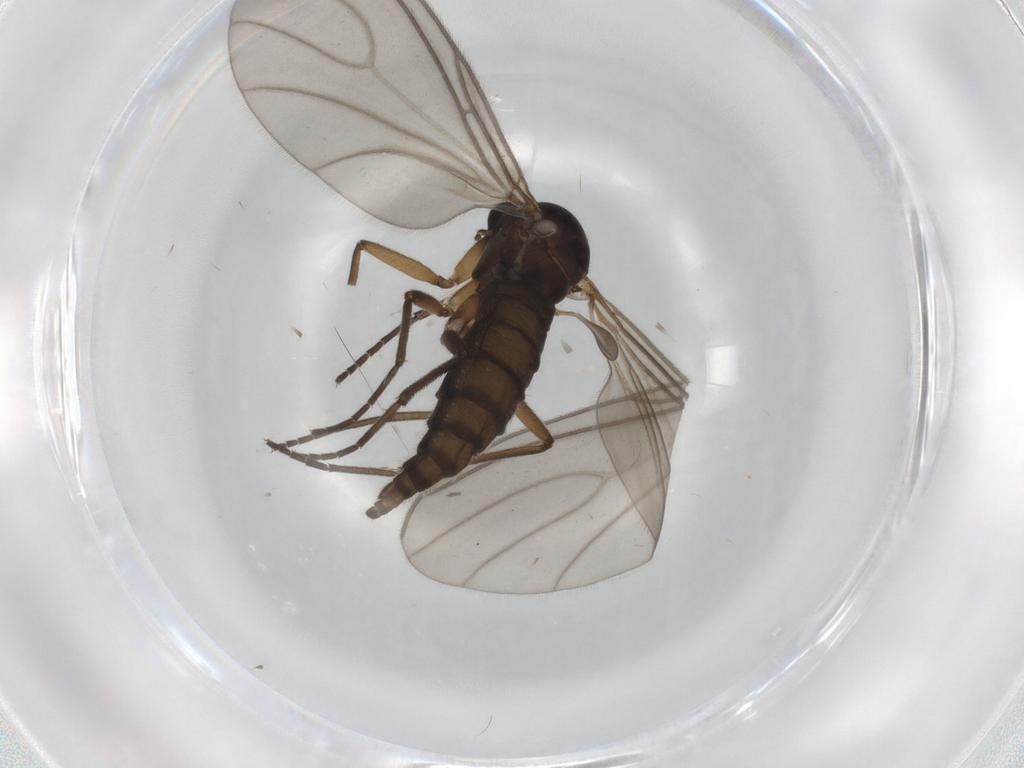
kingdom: Animalia
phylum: Arthropoda
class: Insecta
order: Diptera
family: Sciaridae
